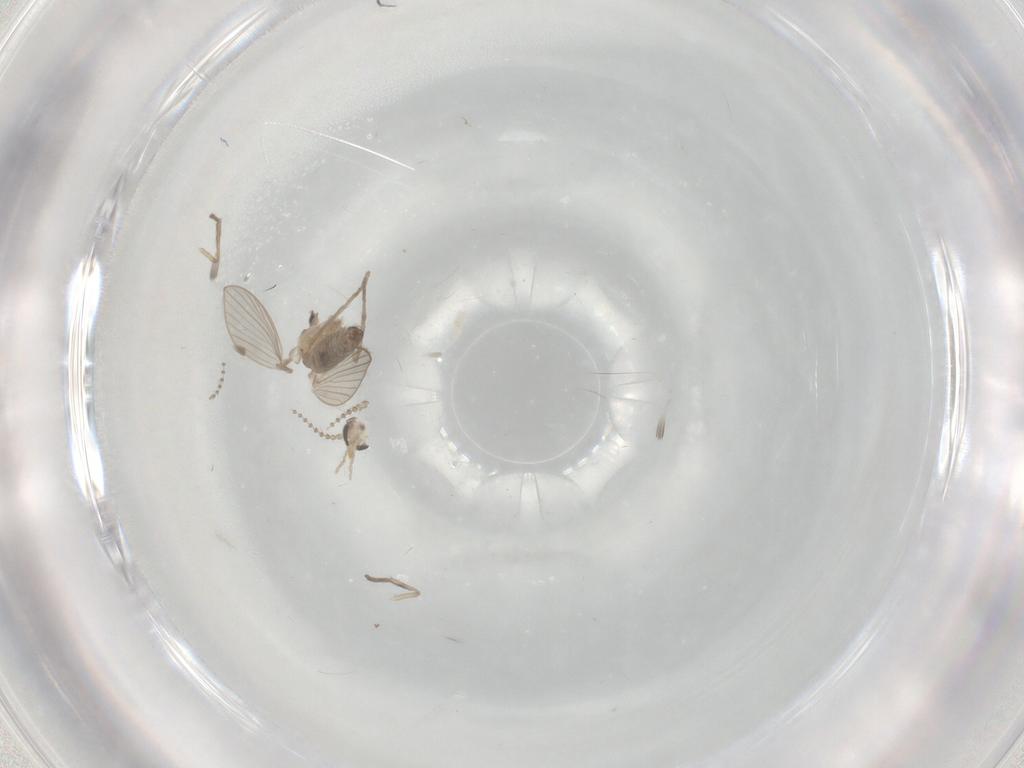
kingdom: Animalia
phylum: Arthropoda
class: Insecta
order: Diptera
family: Psychodidae
